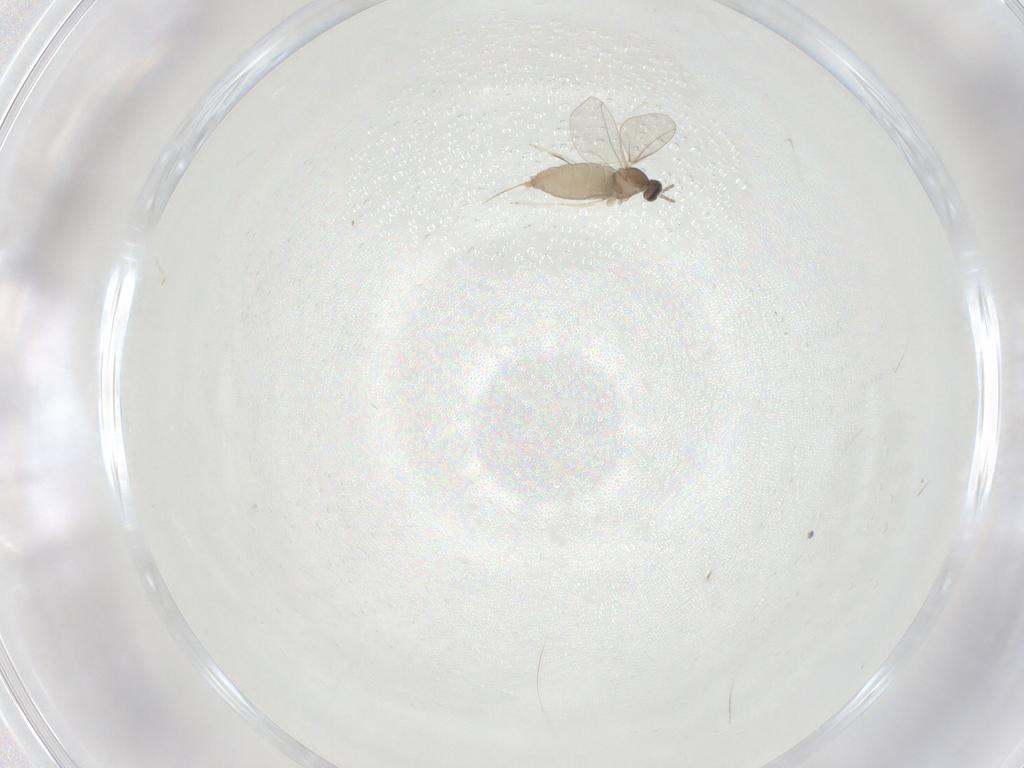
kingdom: Animalia
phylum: Arthropoda
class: Insecta
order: Diptera
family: Cecidomyiidae
